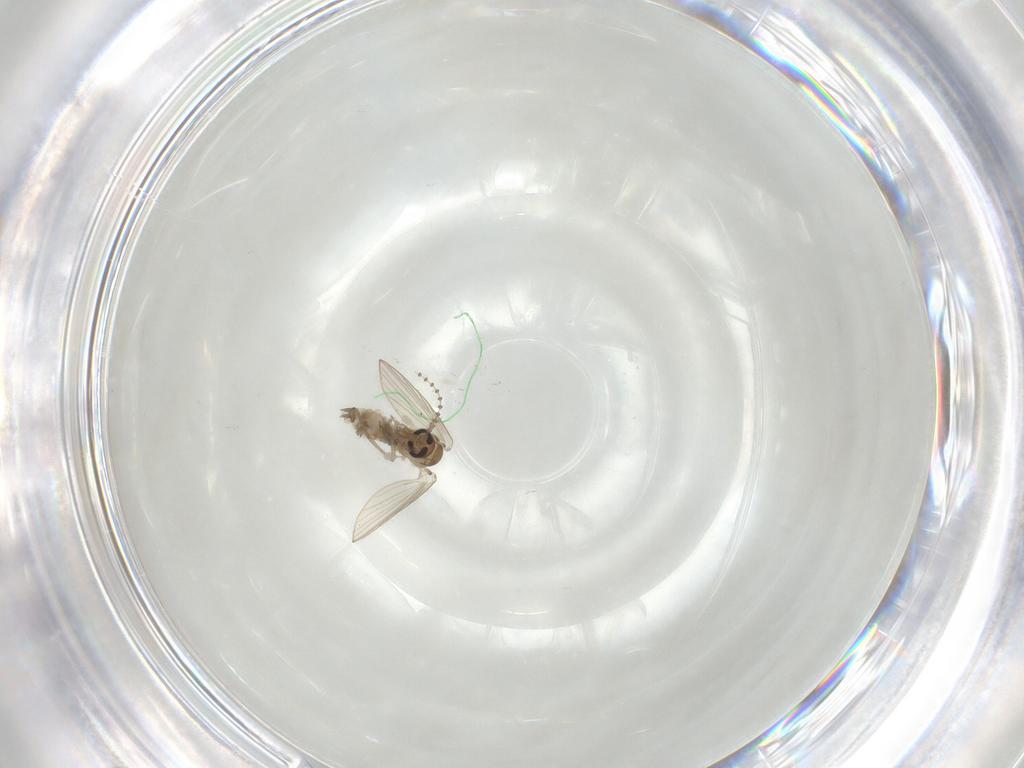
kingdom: Animalia
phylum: Arthropoda
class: Insecta
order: Diptera
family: Psychodidae
